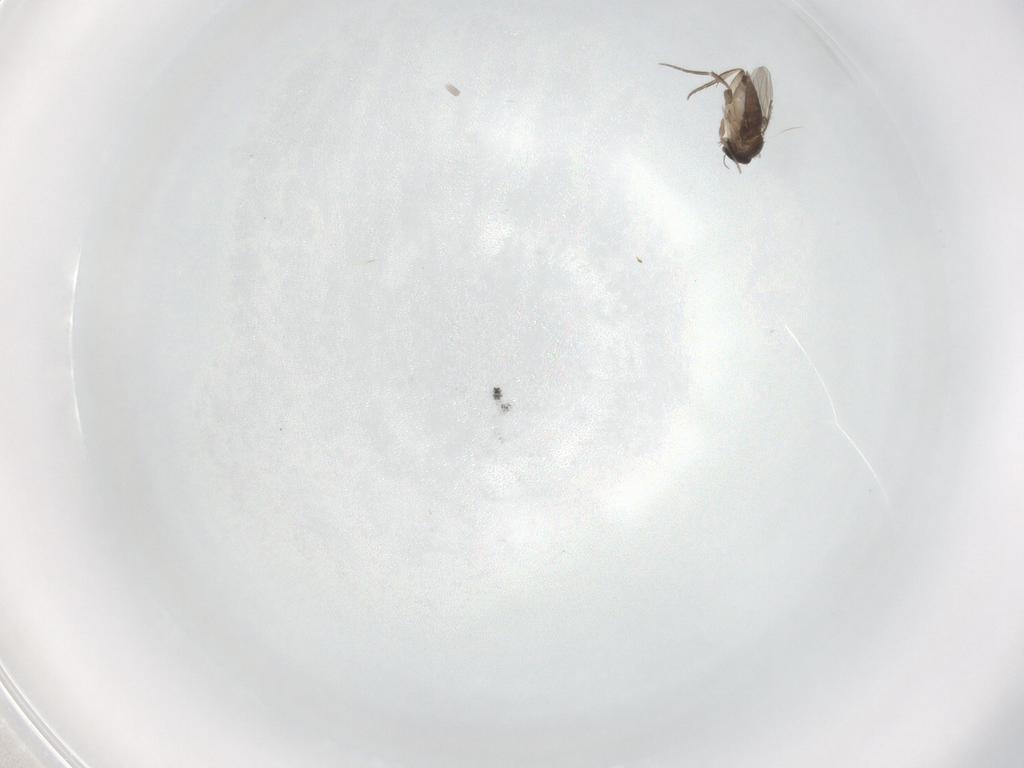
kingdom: Animalia
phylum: Arthropoda
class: Insecta
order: Diptera
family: Phoridae
